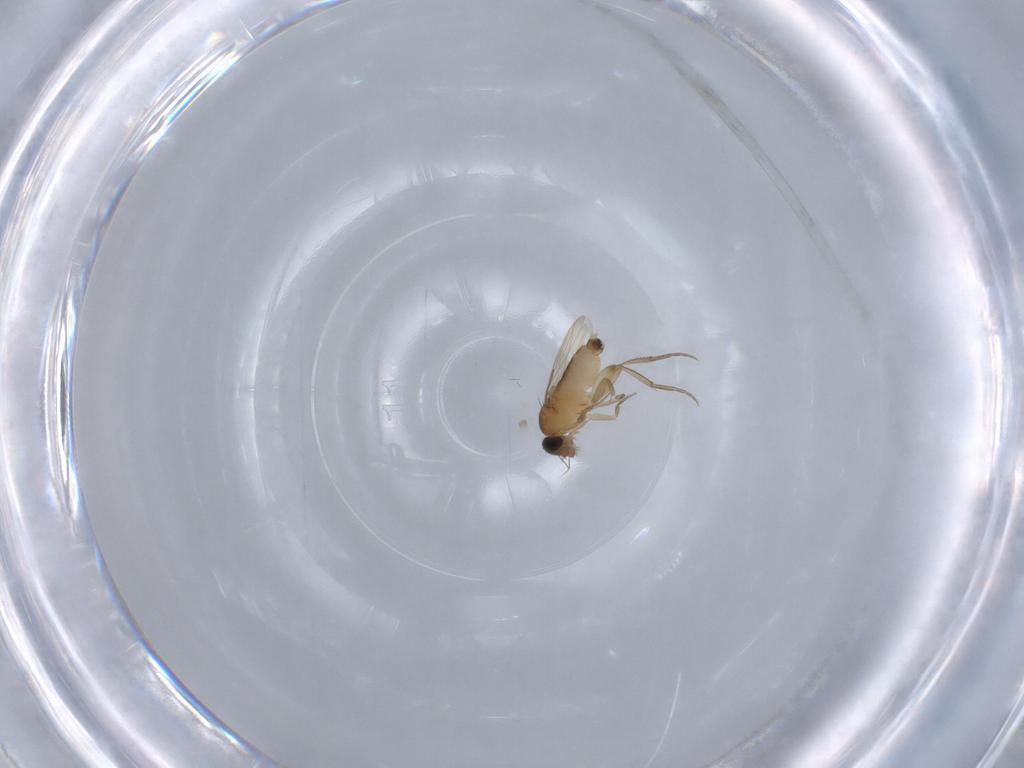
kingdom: Animalia
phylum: Arthropoda
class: Insecta
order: Diptera
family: Phoridae
